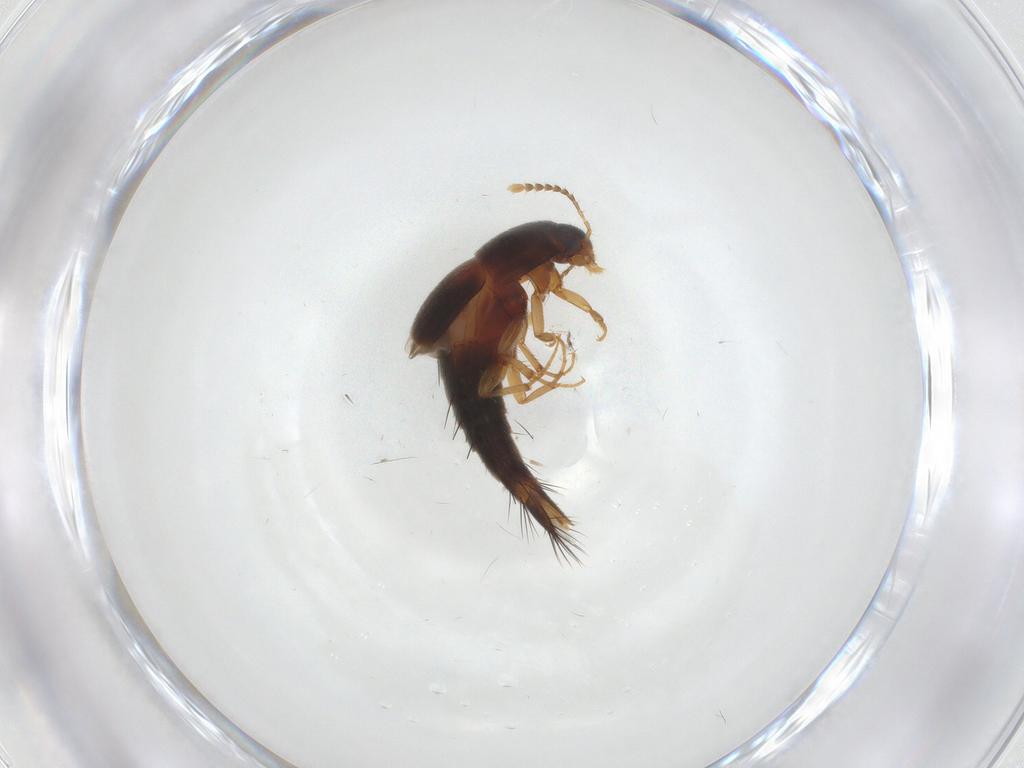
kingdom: Animalia
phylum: Arthropoda
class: Insecta
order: Coleoptera
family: Staphylinidae
